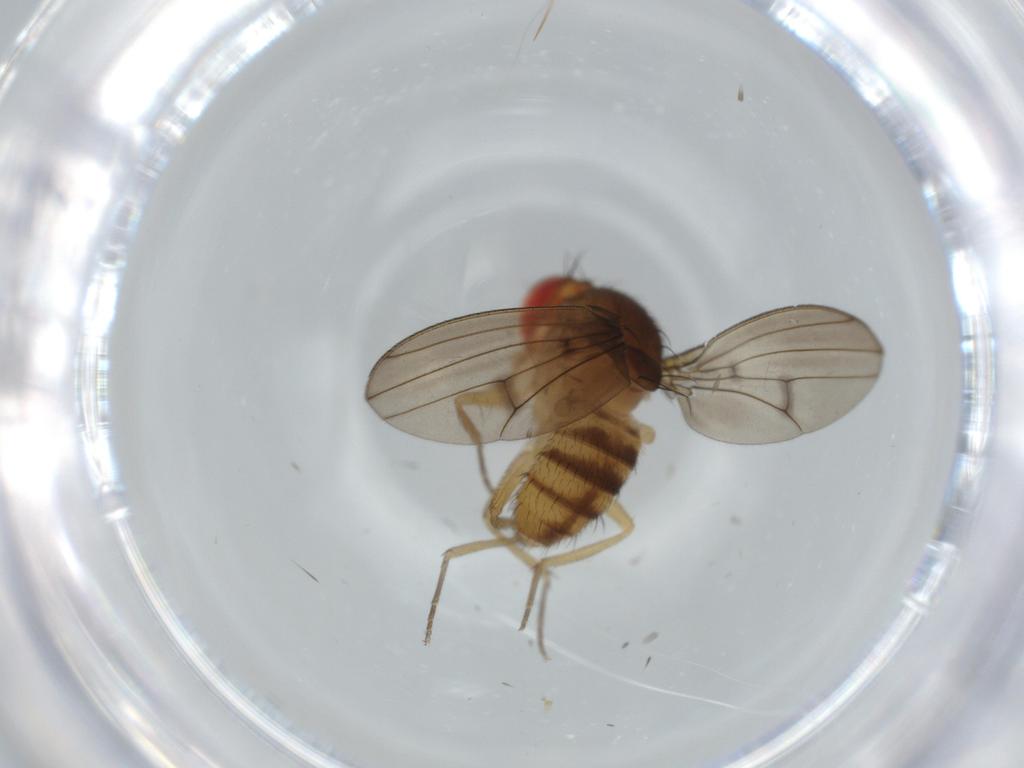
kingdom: Animalia
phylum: Arthropoda
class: Insecta
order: Diptera
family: Drosophilidae
